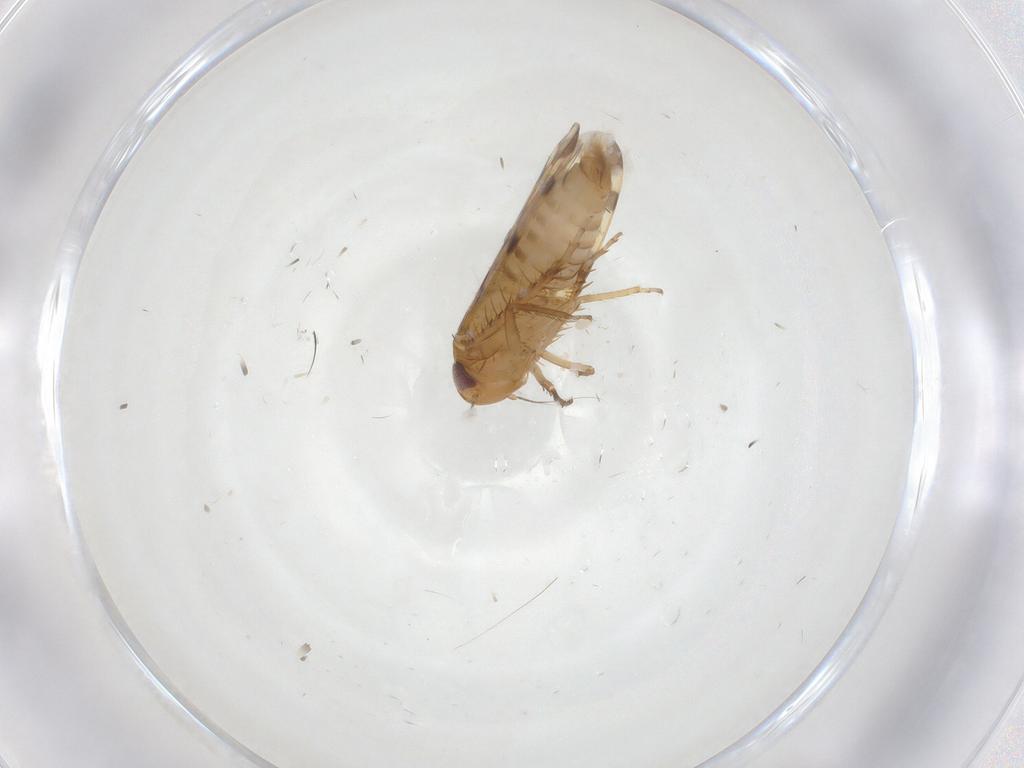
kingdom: Animalia
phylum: Arthropoda
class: Insecta
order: Hemiptera
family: Cicadellidae
